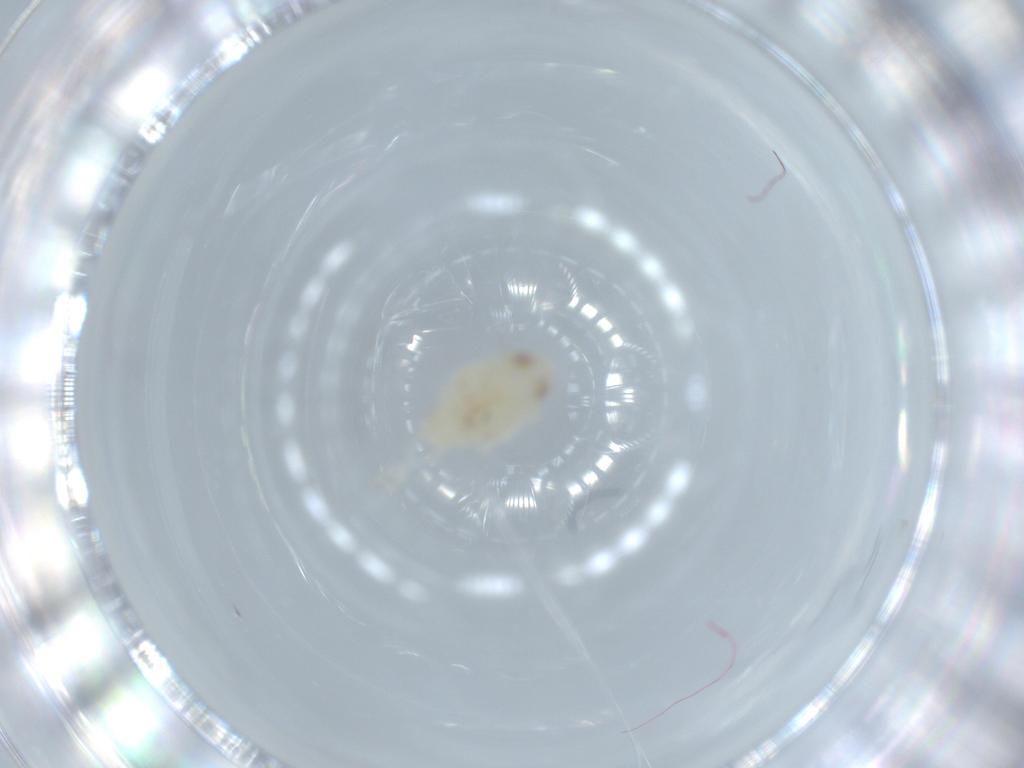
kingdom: Animalia
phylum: Arthropoda
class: Insecta
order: Hemiptera
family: Nogodinidae
